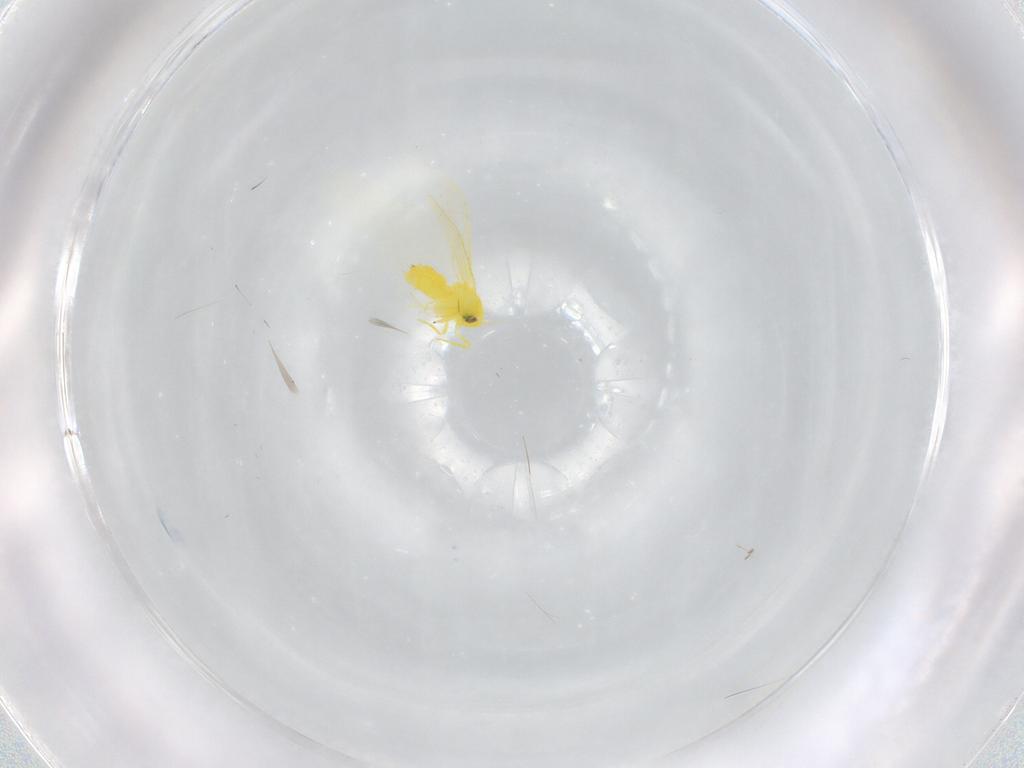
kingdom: Animalia
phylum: Arthropoda
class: Insecta
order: Hemiptera
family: Aleyrodidae
